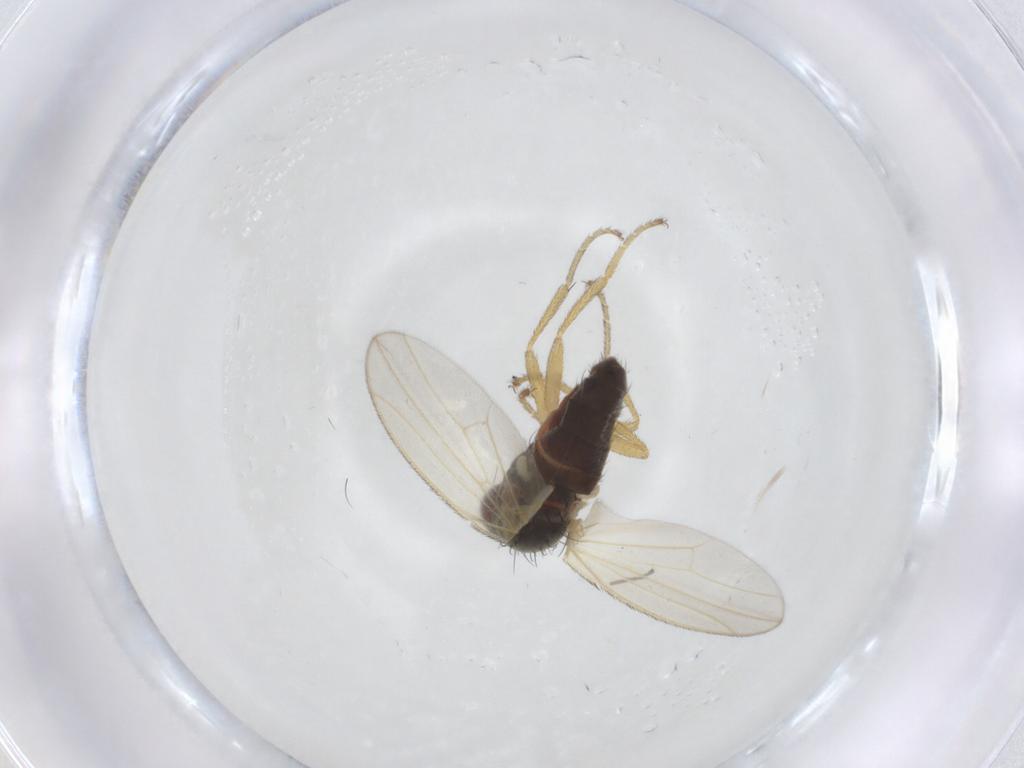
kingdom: Animalia
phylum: Arthropoda
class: Insecta
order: Diptera
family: Heleomyzidae
